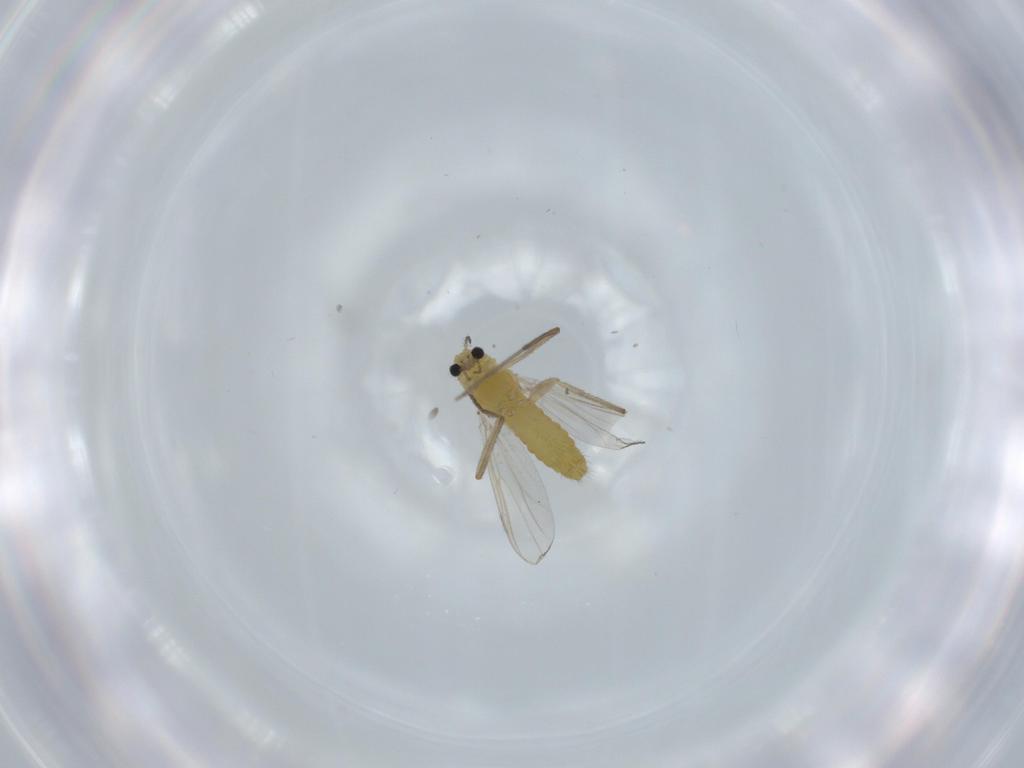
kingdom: Animalia
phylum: Arthropoda
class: Insecta
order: Diptera
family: Chironomidae
